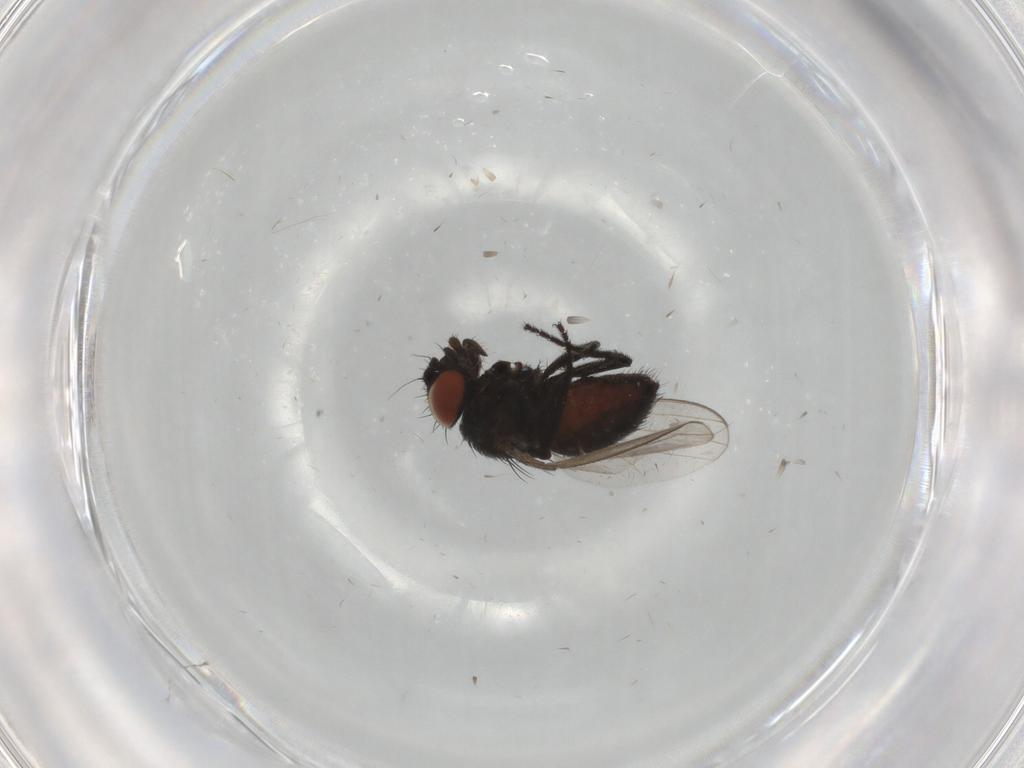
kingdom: Animalia
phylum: Arthropoda
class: Insecta
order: Diptera
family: Milichiidae
